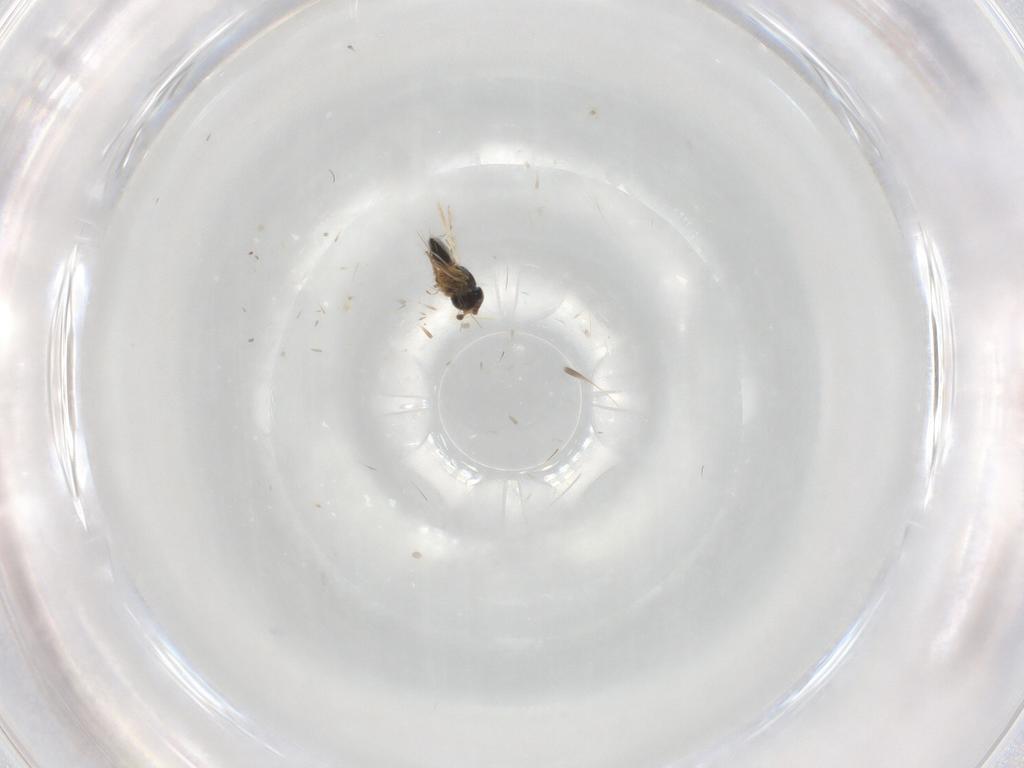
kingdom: Animalia
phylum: Arthropoda
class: Insecta
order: Hymenoptera
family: Scelionidae
